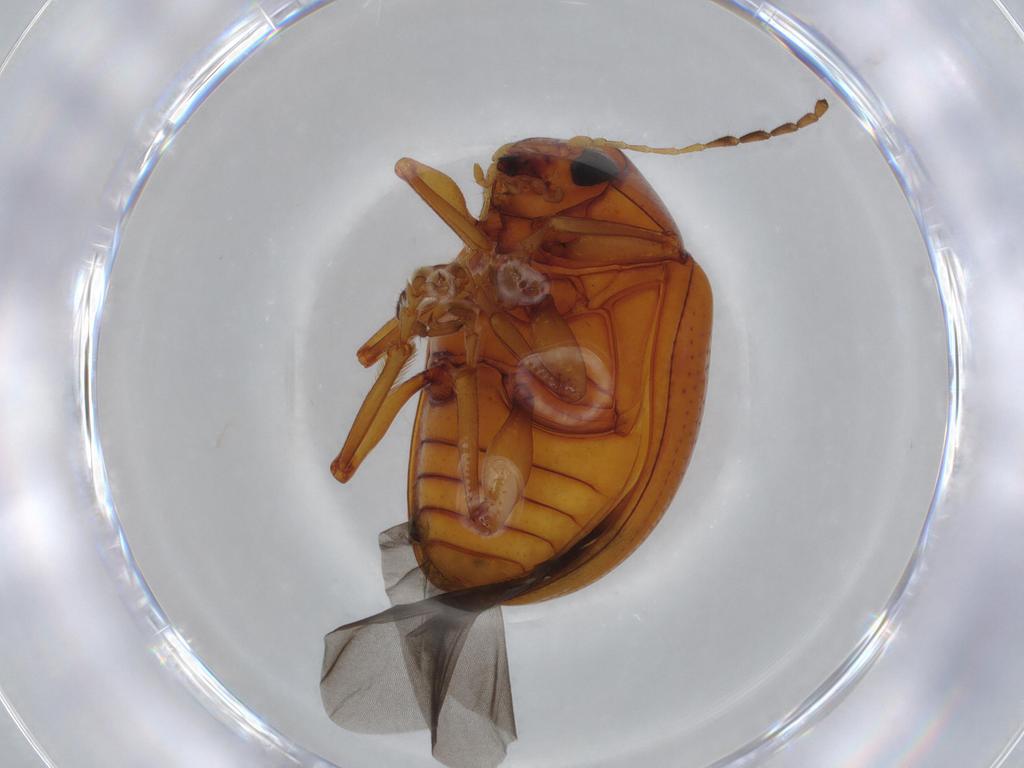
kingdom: Animalia
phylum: Arthropoda
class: Insecta
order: Coleoptera
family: Chrysomelidae
